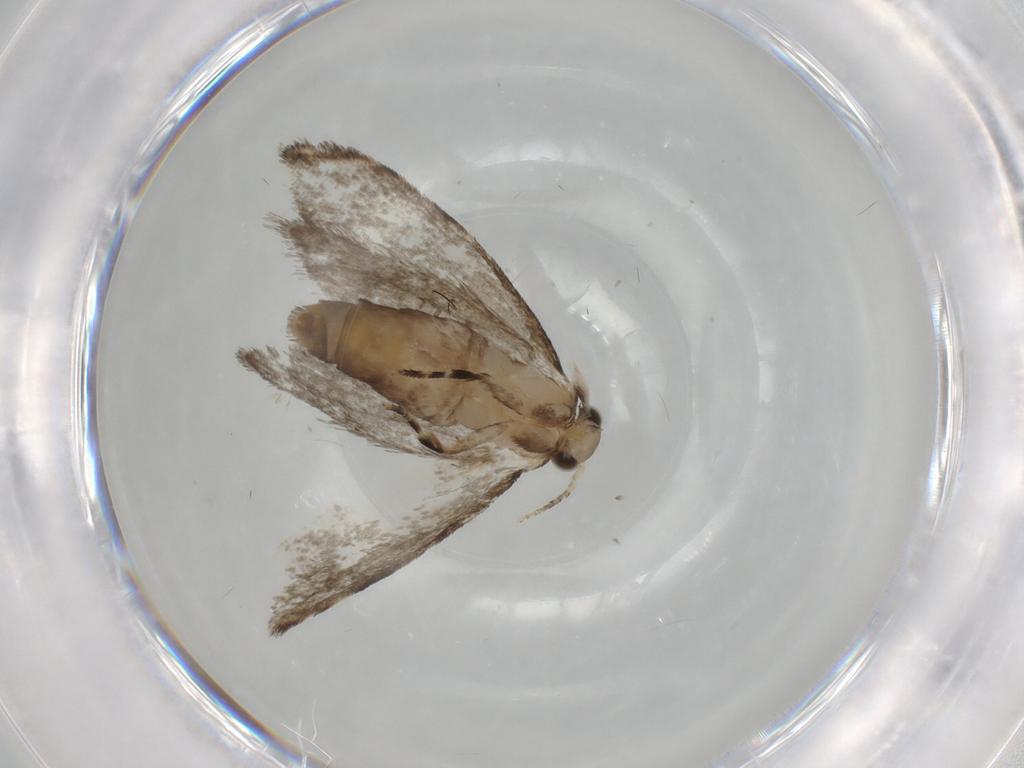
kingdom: Animalia
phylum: Arthropoda
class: Insecta
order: Lepidoptera
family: Tineidae
